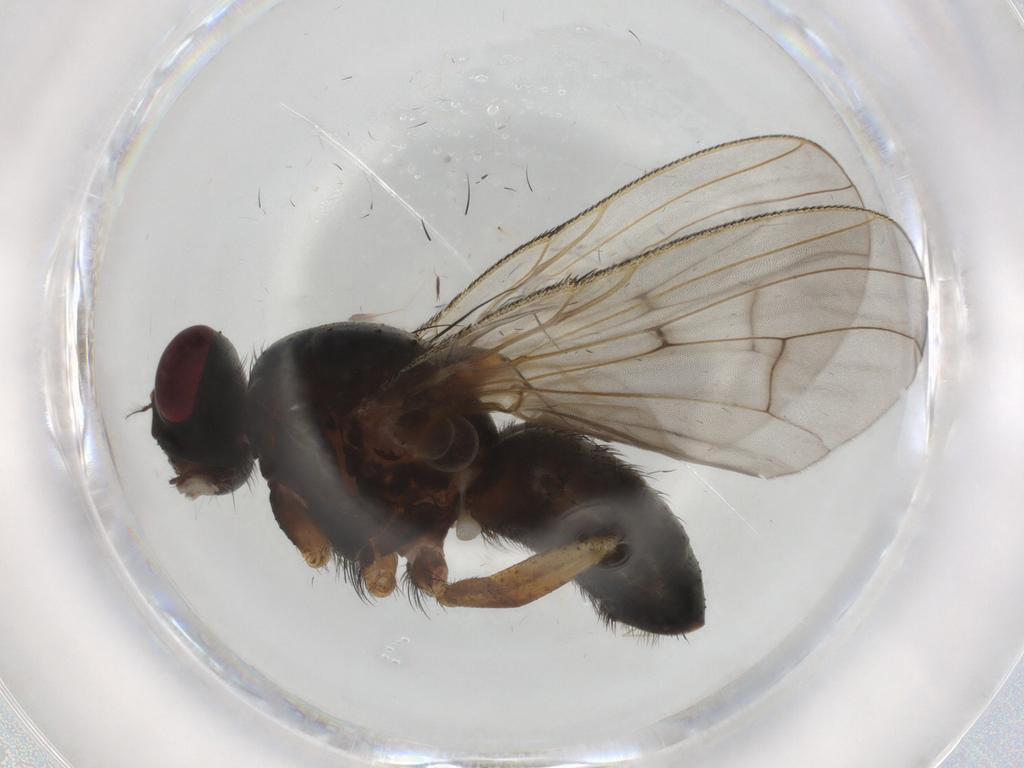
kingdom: Animalia
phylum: Arthropoda
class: Insecta
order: Diptera
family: Muscidae
